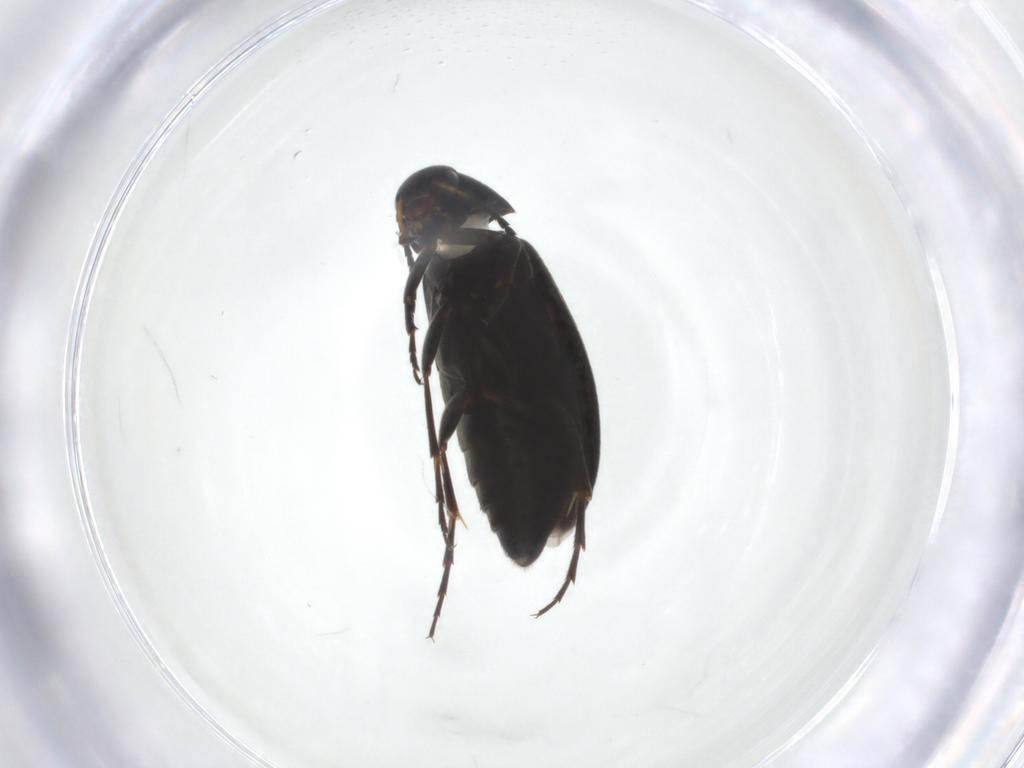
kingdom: Animalia
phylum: Arthropoda
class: Insecta
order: Coleoptera
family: Scraptiidae
